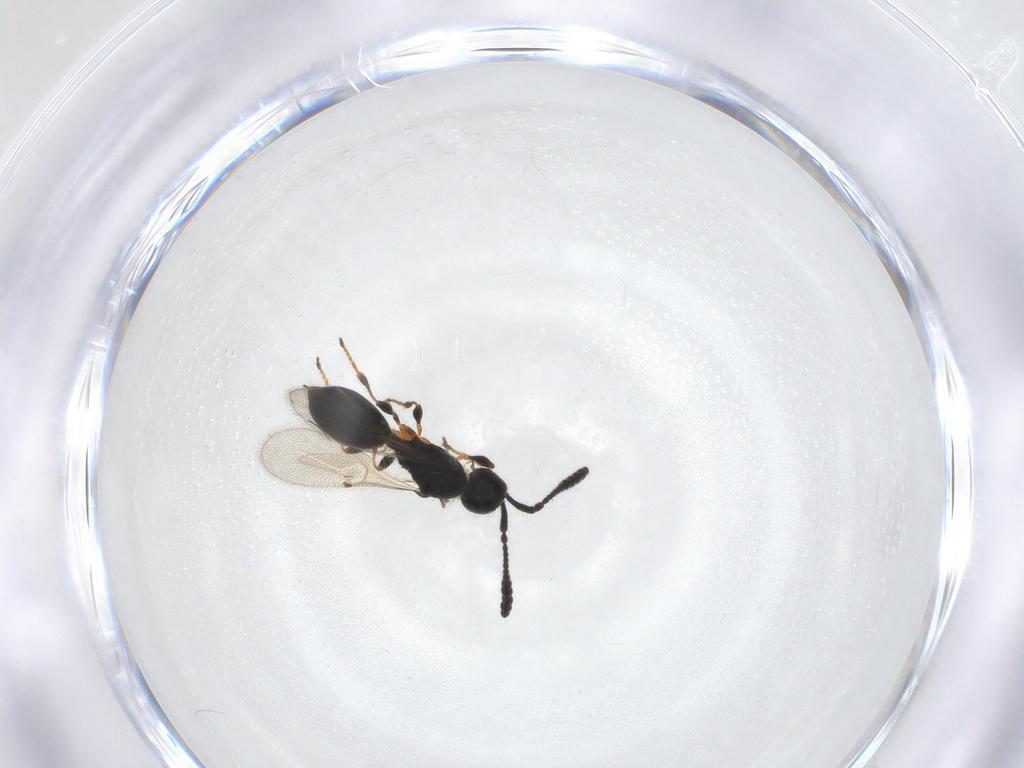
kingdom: Animalia
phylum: Arthropoda
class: Insecta
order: Hymenoptera
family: Diapriidae
